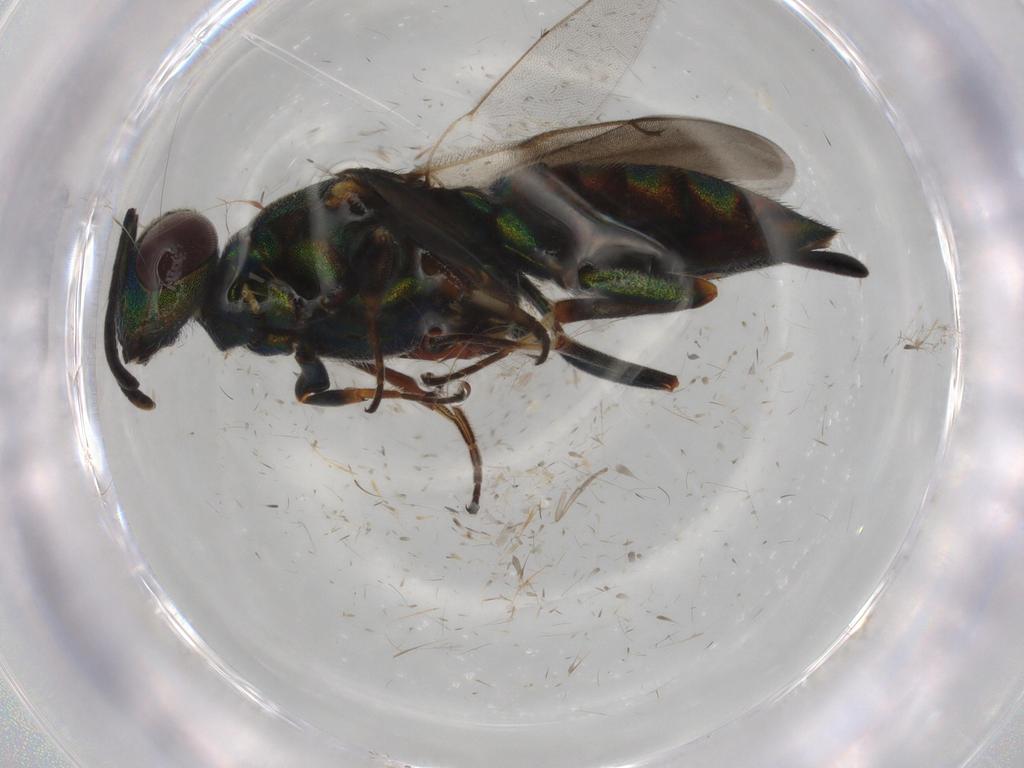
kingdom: Animalia
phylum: Arthropoda
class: Insecta
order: Hymenoptera
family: Eupelmidae
